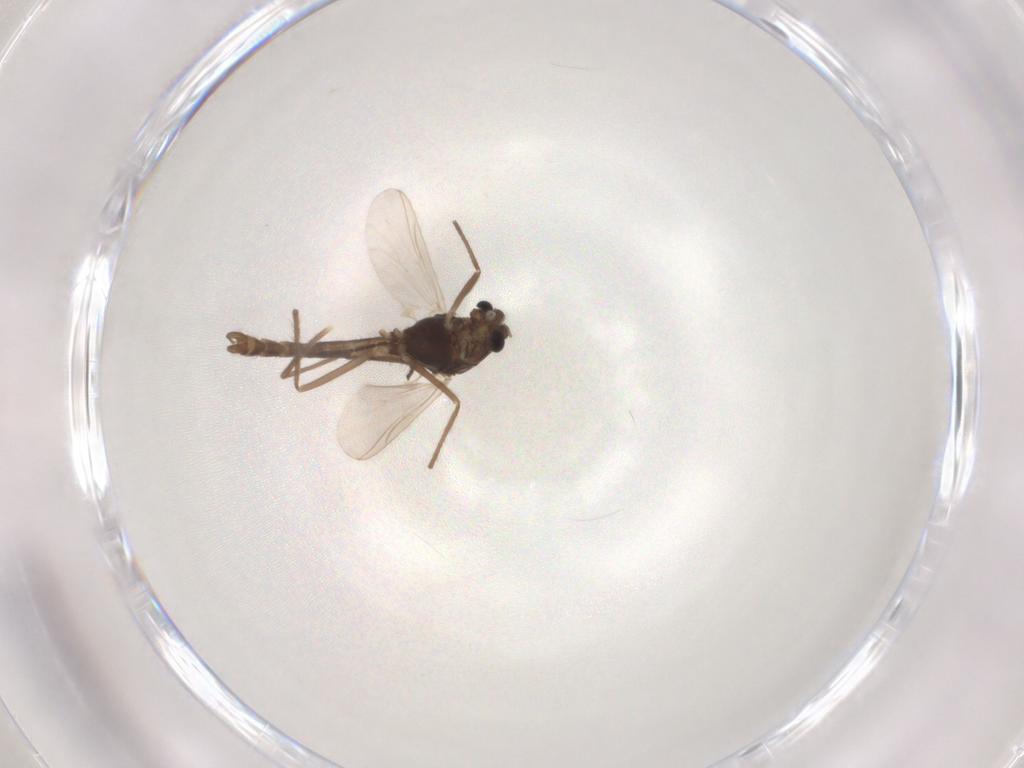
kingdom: Animalia
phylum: Arthropoda
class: Insecta
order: Diptera
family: Chironomidae
